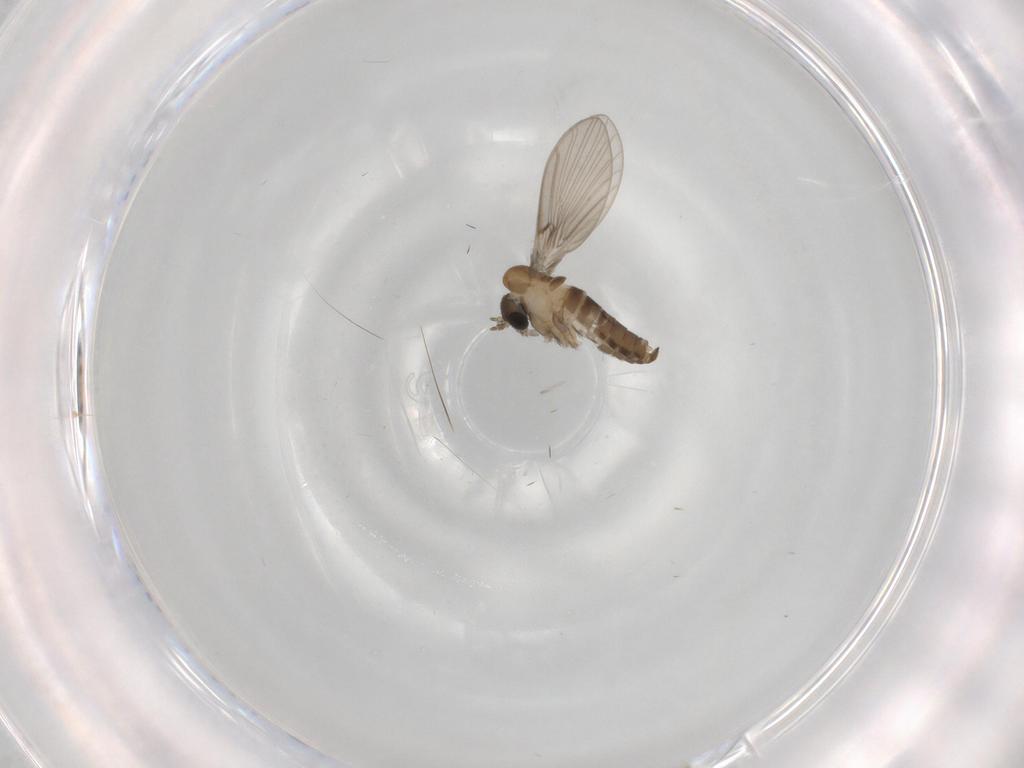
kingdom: Animalia
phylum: Arthropoda
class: Insecta
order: Diptera
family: Psychodidae
